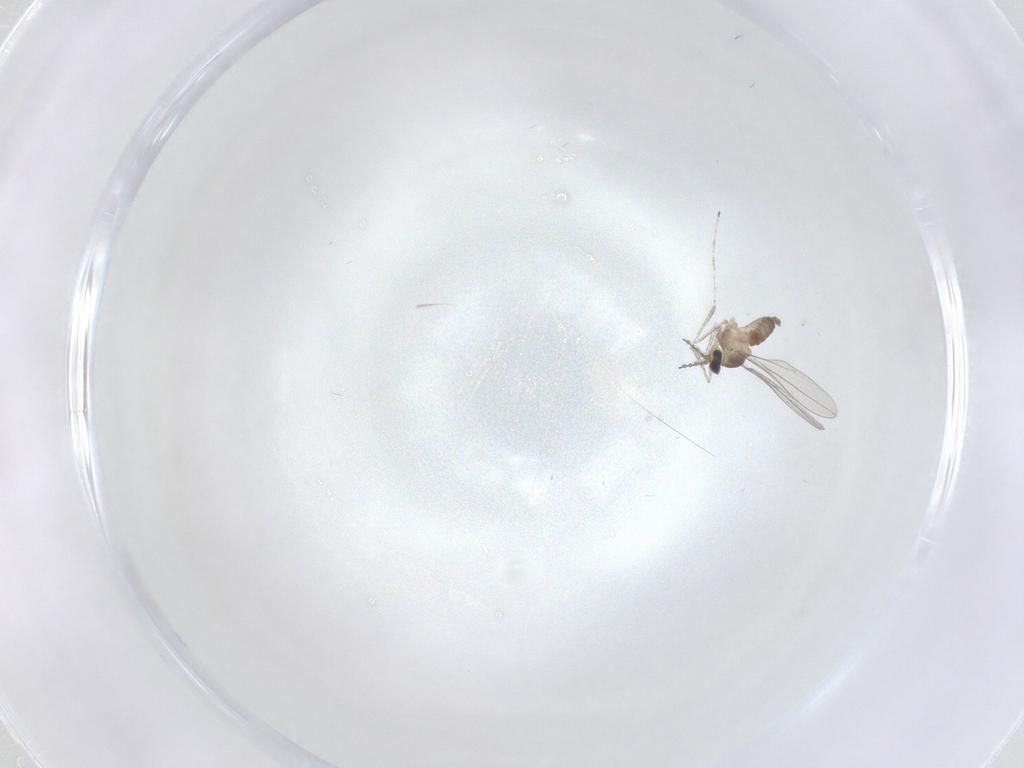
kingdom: Animalia
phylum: Arthropoda
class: Insecta
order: Diptera
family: Cecidomyiidae
